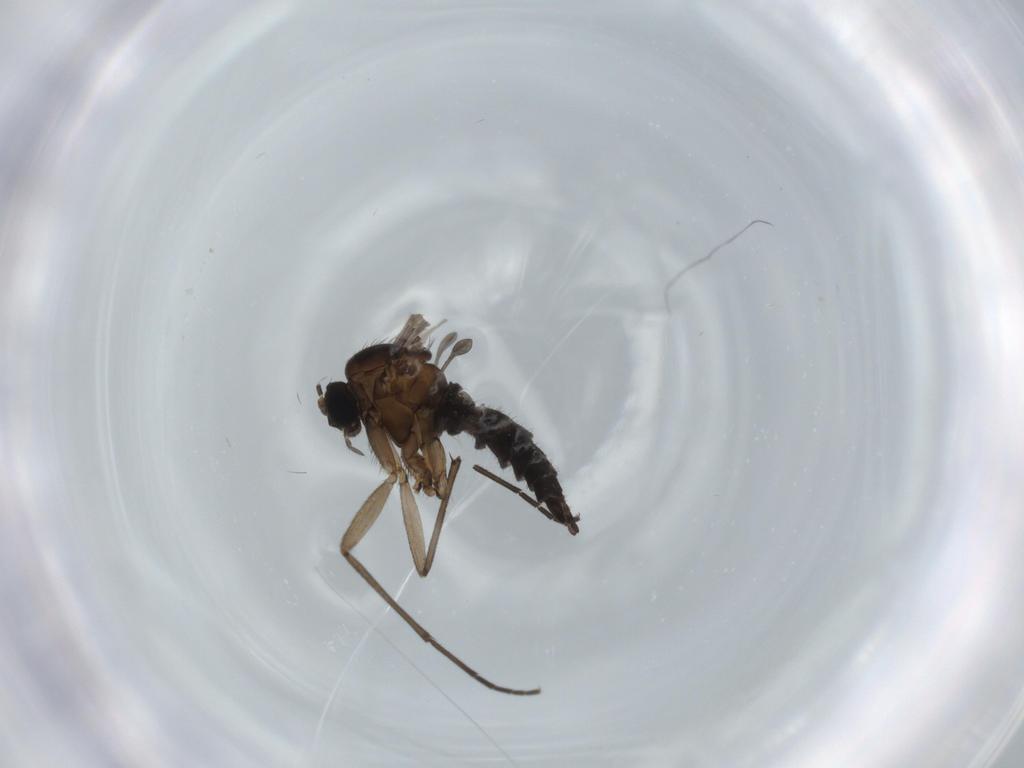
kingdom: Animalia
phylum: Arthropoda
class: Insecta
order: Diptera
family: Sciaridae
